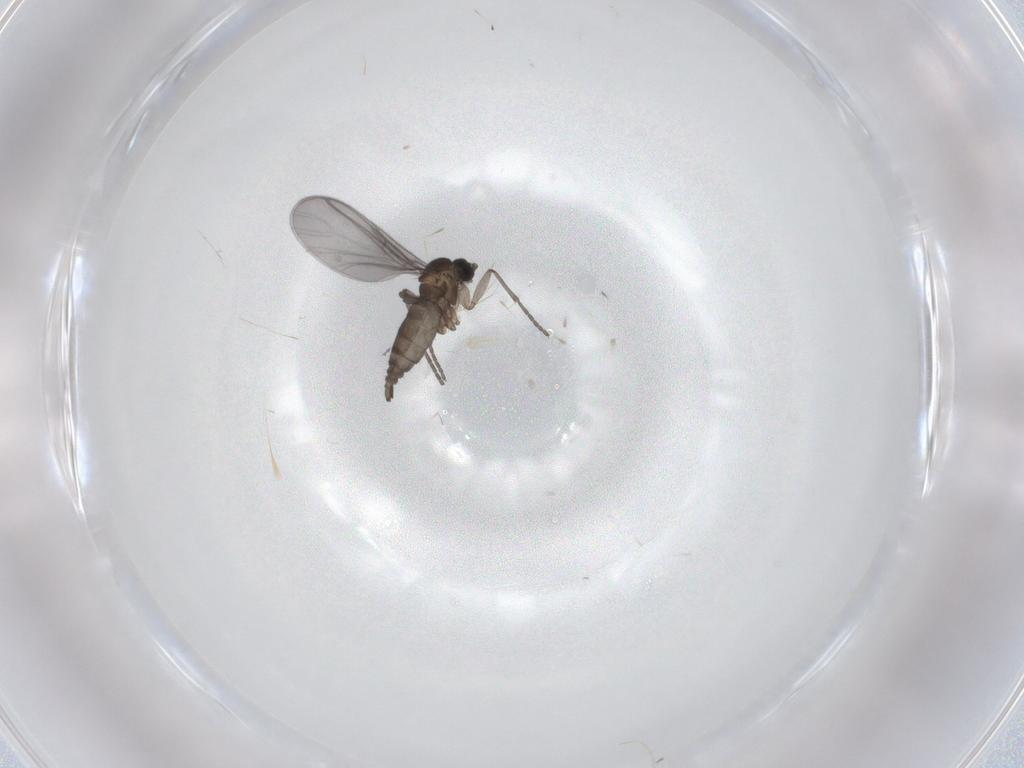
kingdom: Animalia
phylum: Arthropoda
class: Insecta
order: Diptera
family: Sciaridae
